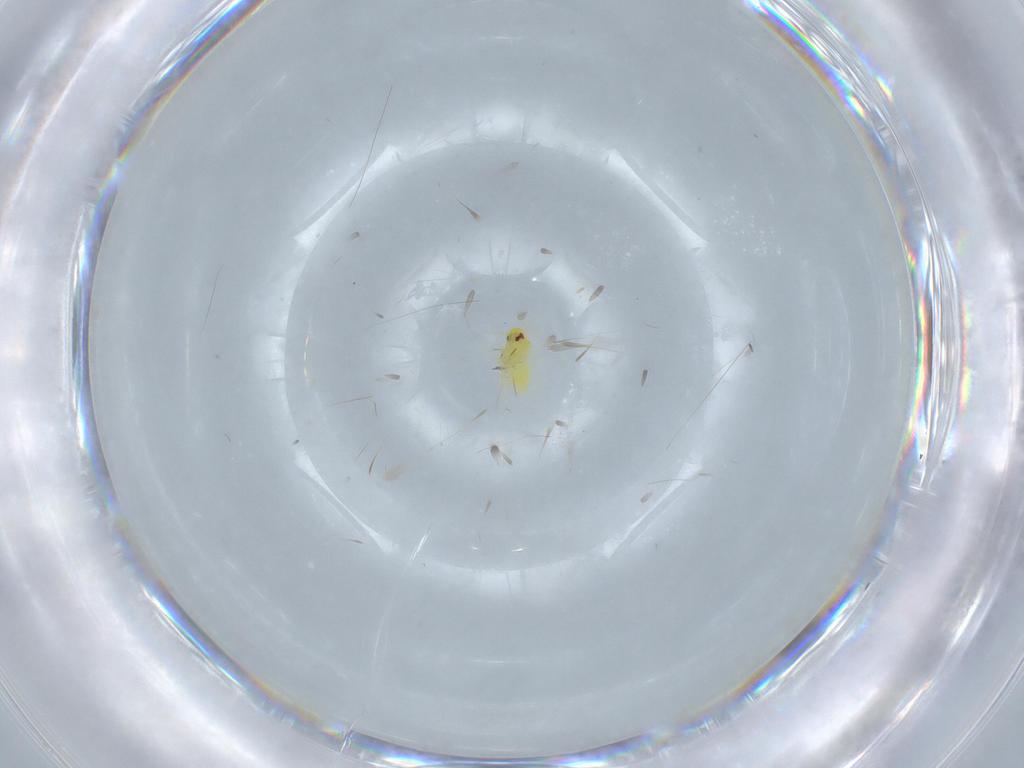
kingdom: Animalia
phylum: Arthropoda
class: Insecta
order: Hemiptera
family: Aleyrodidae
